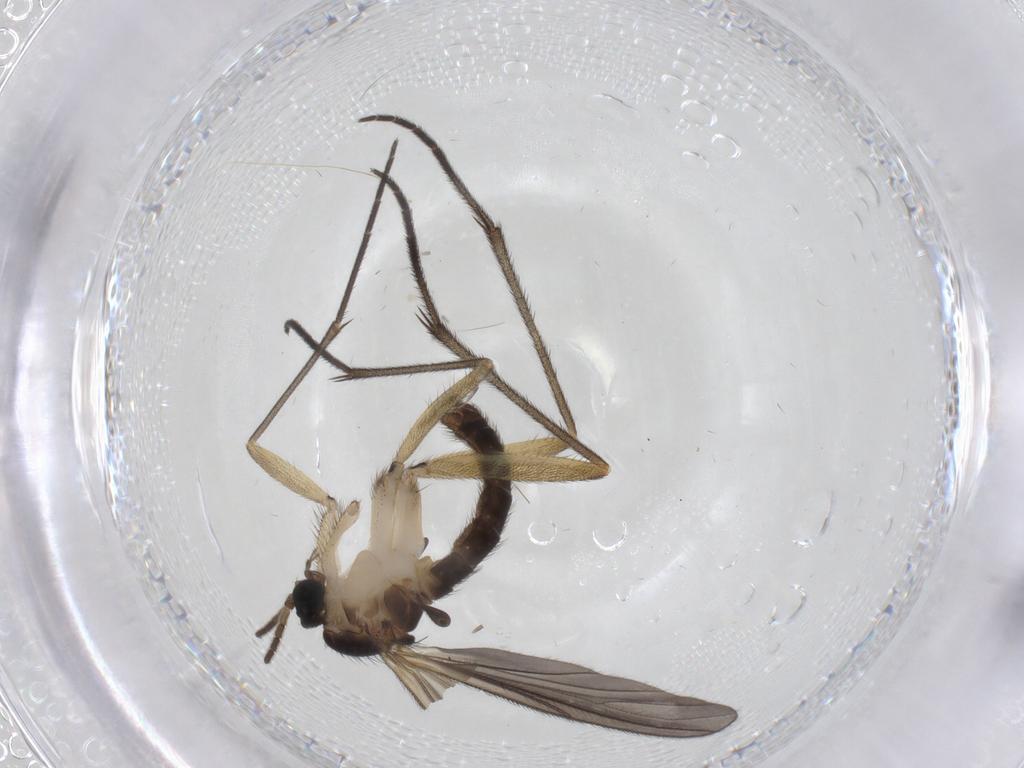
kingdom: Animalia
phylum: Arthropoda
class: Insecta
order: Diptera
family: Sciaridae
